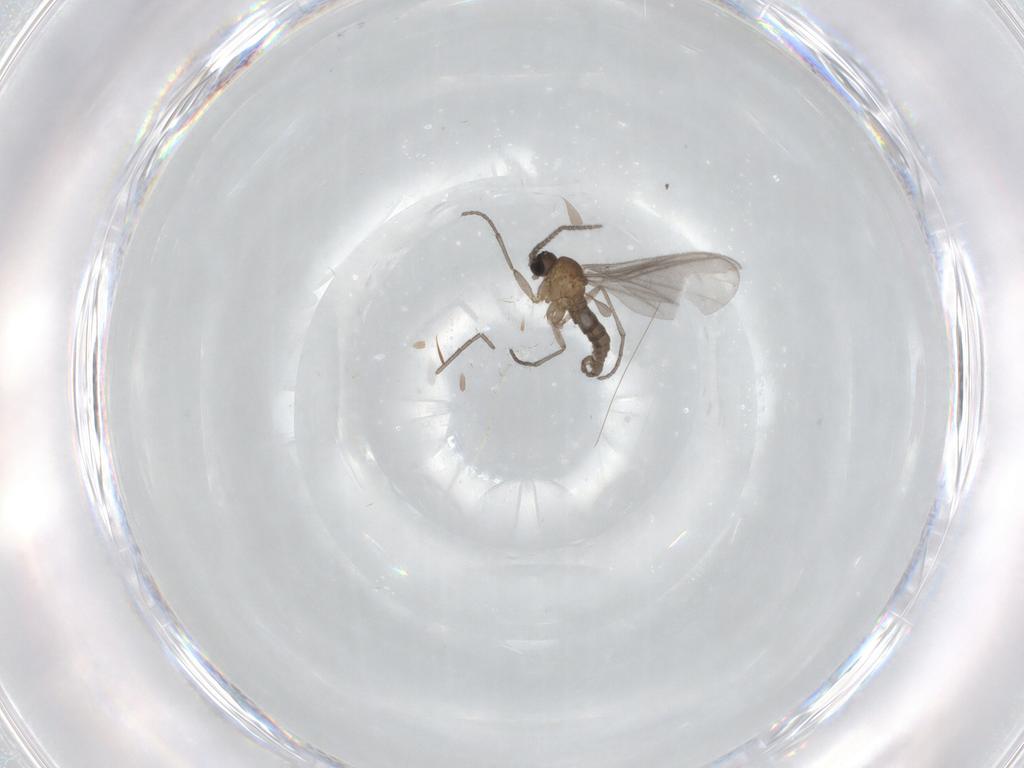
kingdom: Animalia
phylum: Arthropoda
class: Insecta
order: Diptera
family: Sciaridae
